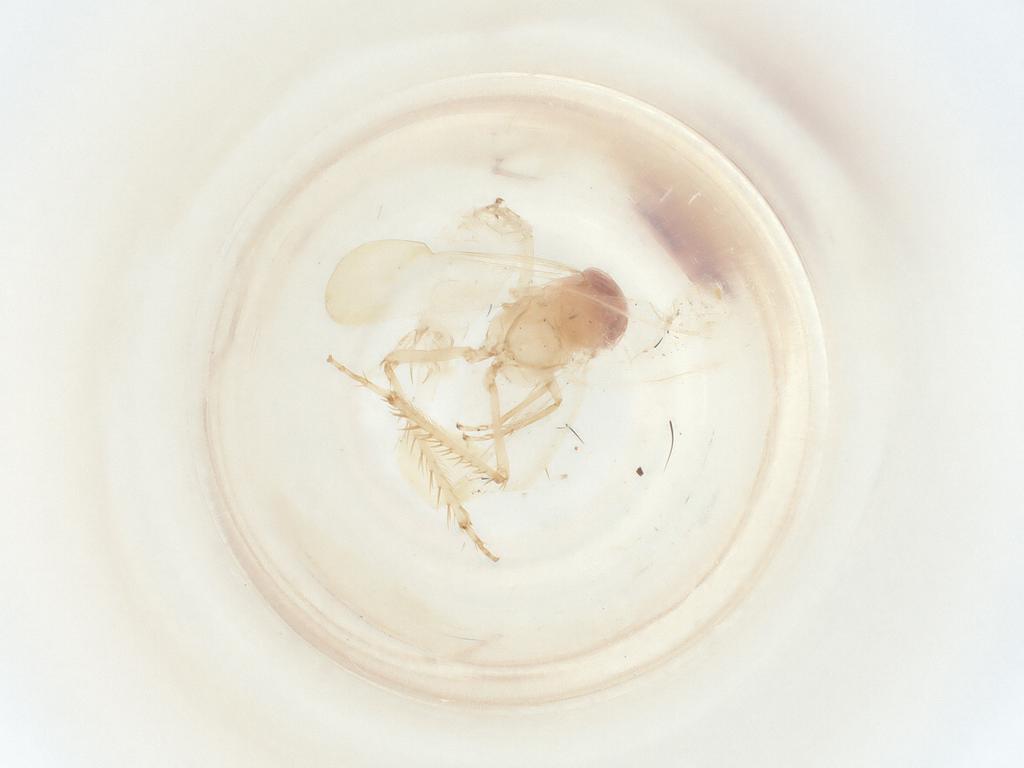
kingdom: Animalia
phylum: Arthropoda
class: Insecta
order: Hemiptera
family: Cicadellidae
